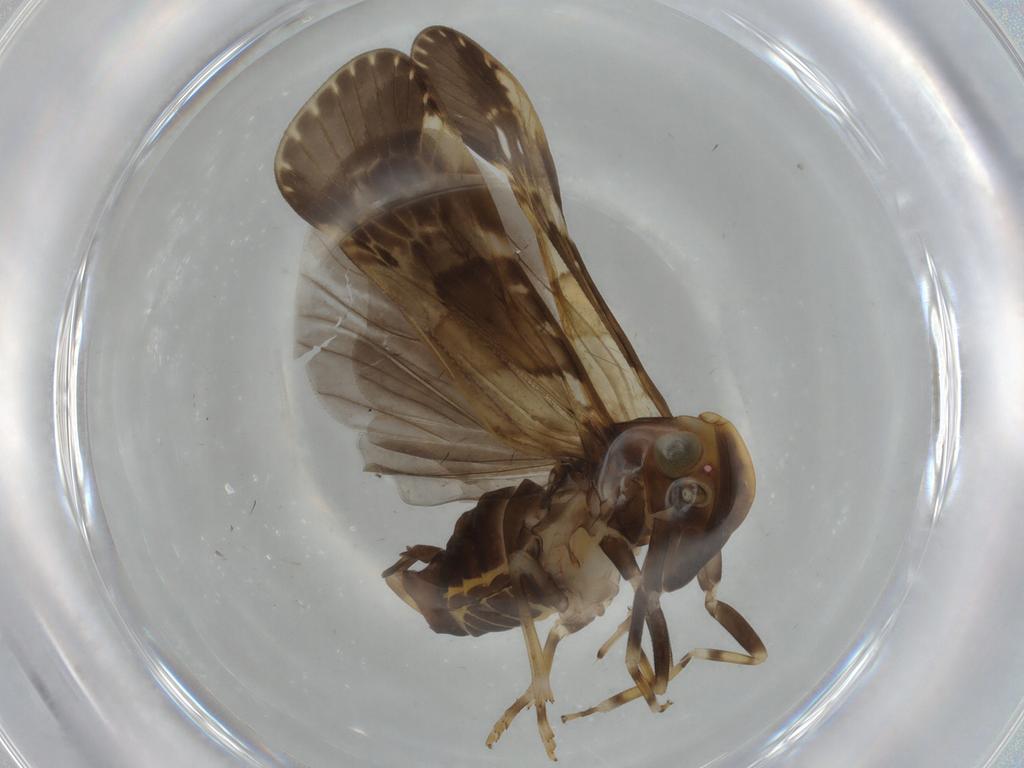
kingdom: Animalia
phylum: Arthropoda
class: Insecta
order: Hemiptera
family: Cixiidae
